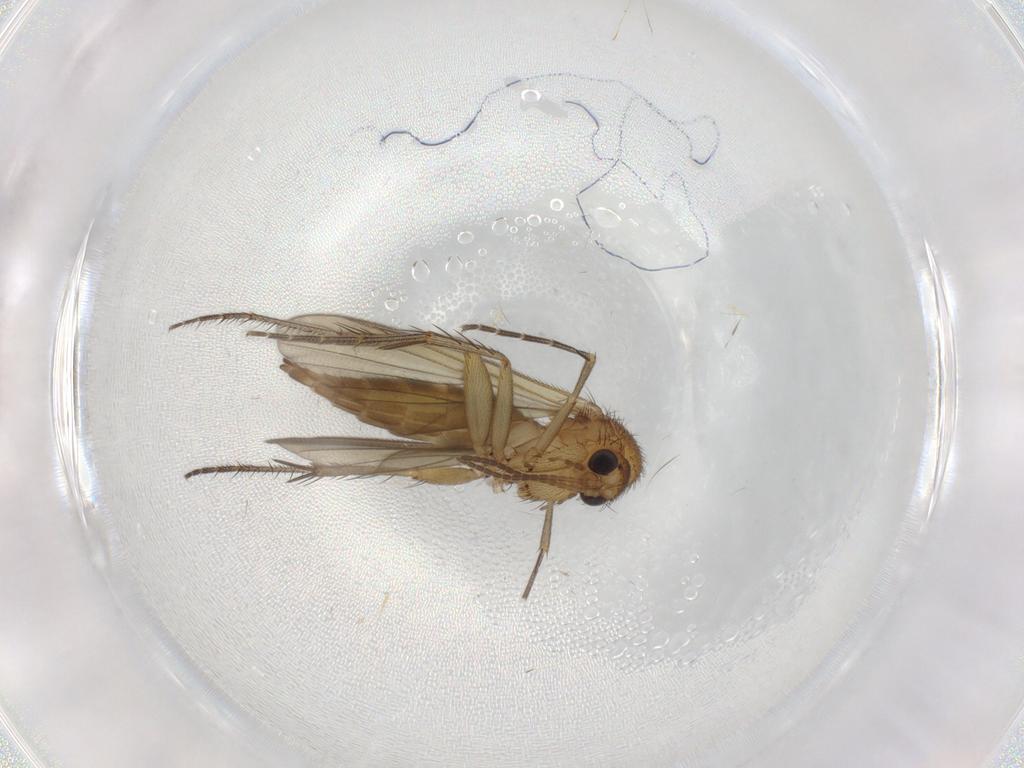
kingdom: Animalia
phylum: Arthropoda
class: Insecta
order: Diptera
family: Mycetophilidae
